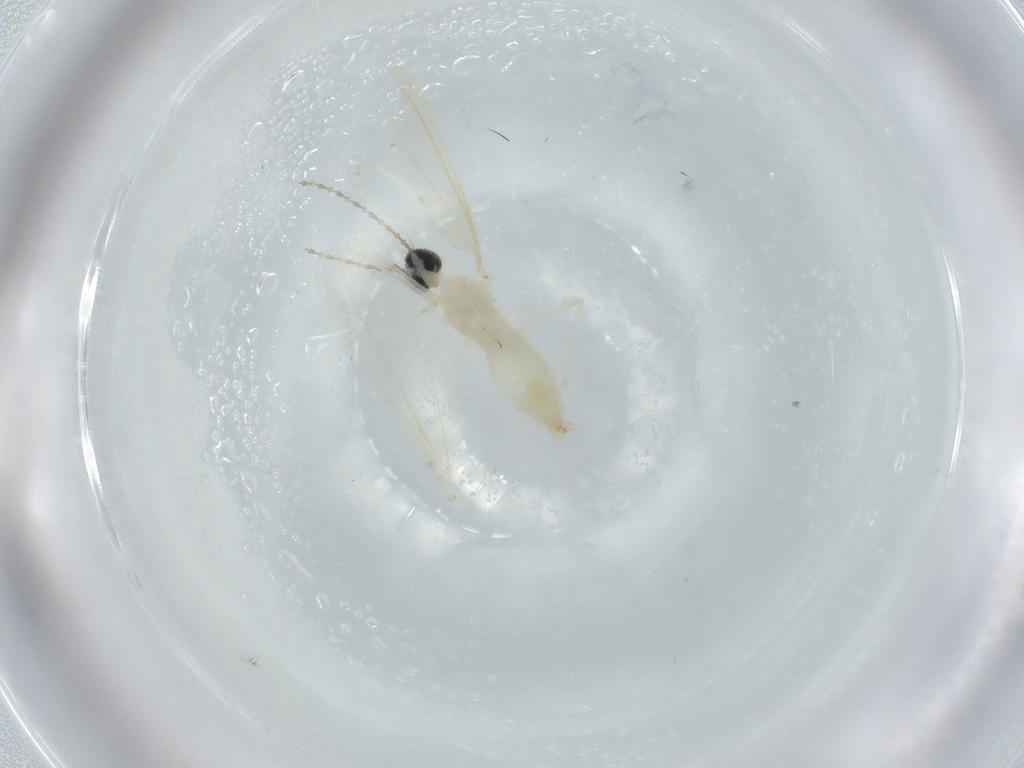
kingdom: Animalia
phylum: Arthropoda
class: Insecta
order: Diptera
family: Cecidomyiidae
